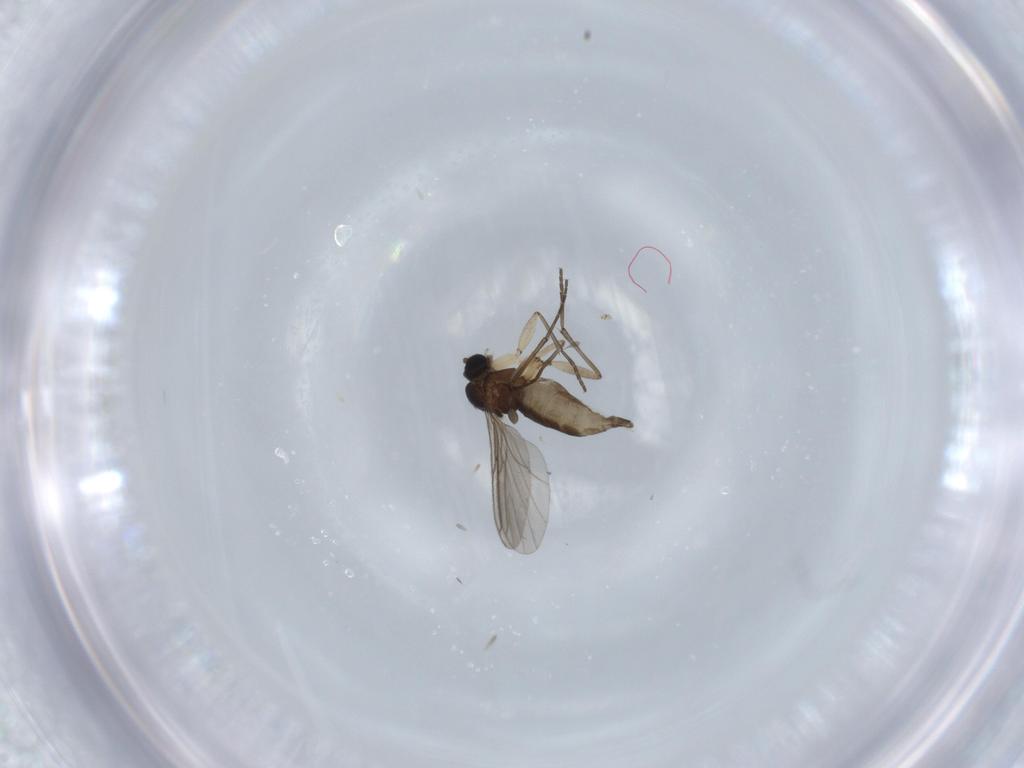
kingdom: Animalia
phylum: Arthropoda
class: Insecta
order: Diptera
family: Sciaridae
